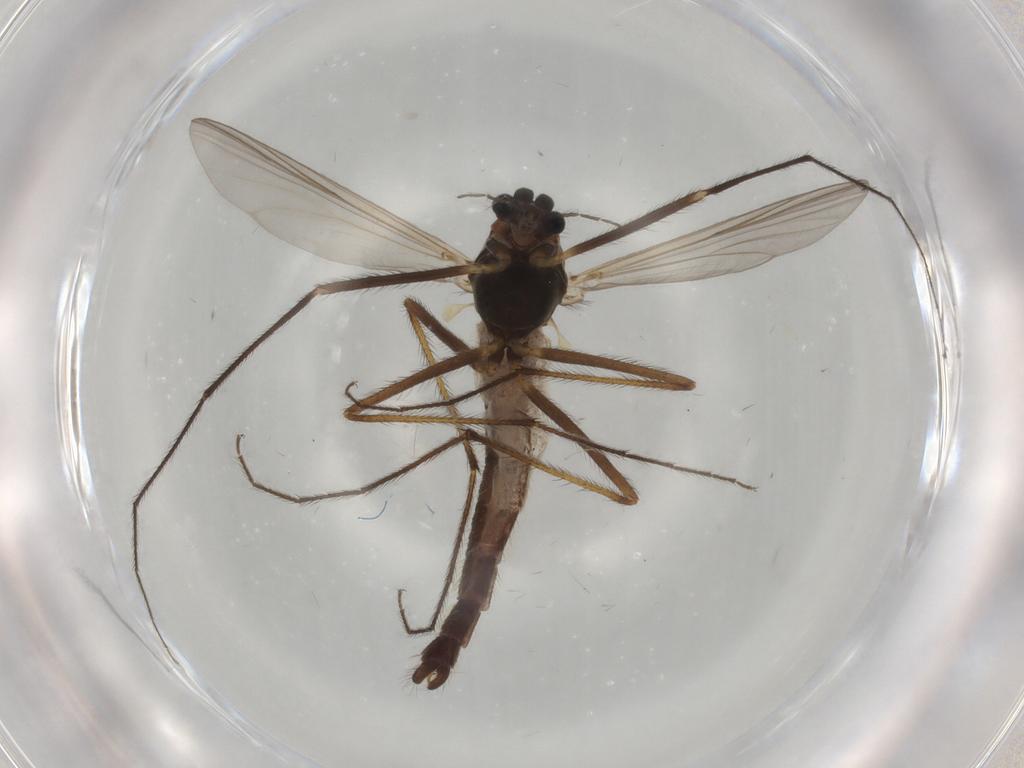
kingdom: Animalia
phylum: Arthropoda
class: Insecta
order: Diptera
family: Chironomidae
